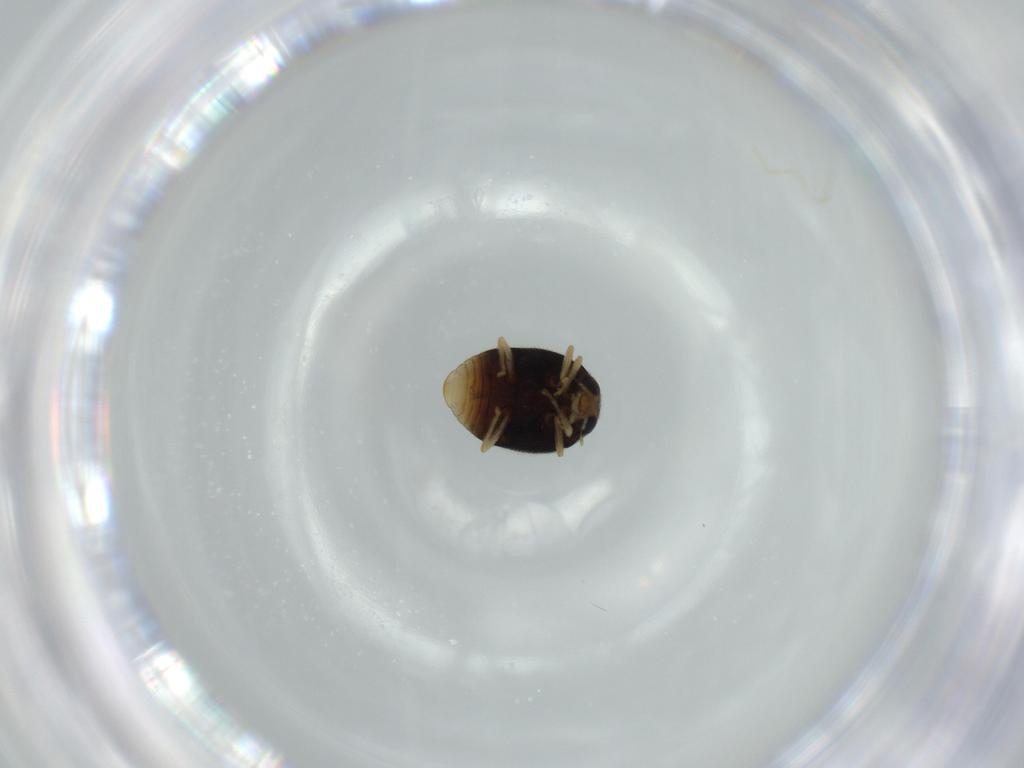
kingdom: Animalia
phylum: Arthropoda
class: Insecta
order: Coleoptera
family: Coccinellidae
